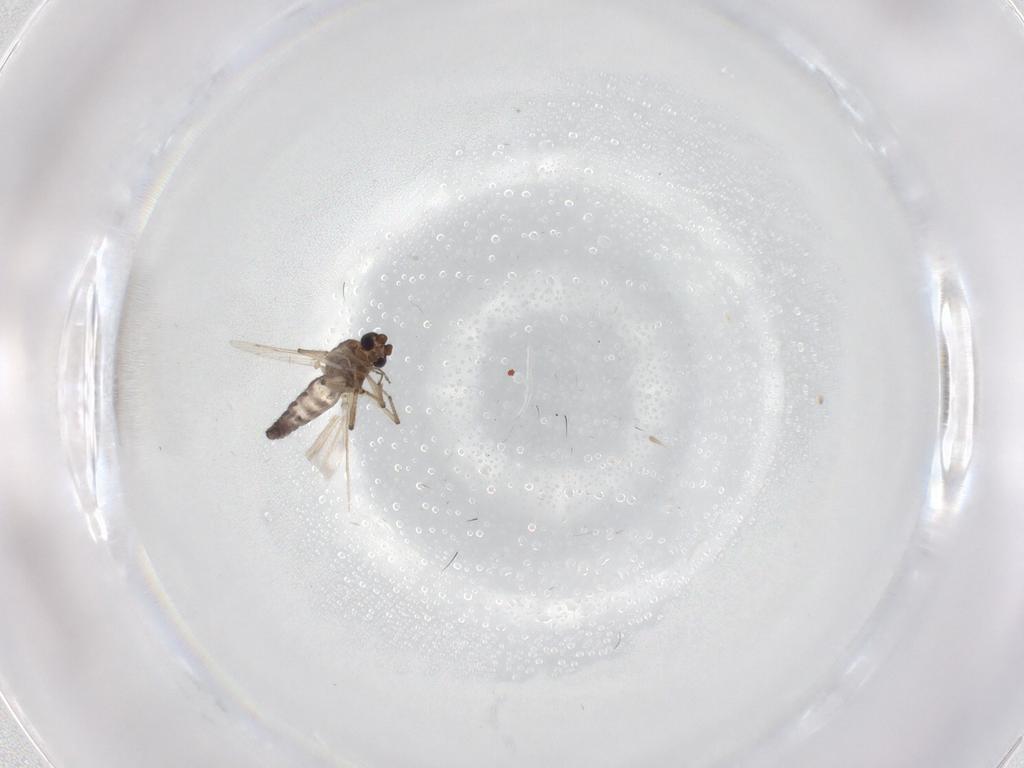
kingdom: Animalia
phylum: Arthropoda
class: Insecta
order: Diptera
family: Ceratopogonidae
